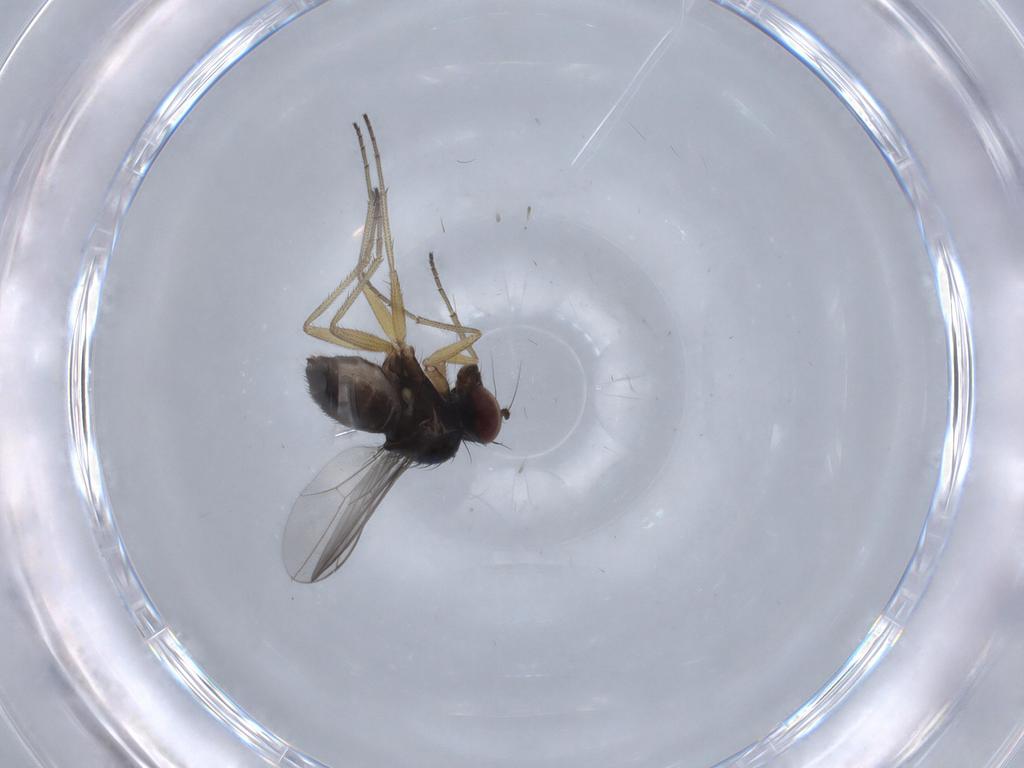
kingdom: Animalia
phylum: Arthropoda
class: Insecta
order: Diptera
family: Dolichopodidae
